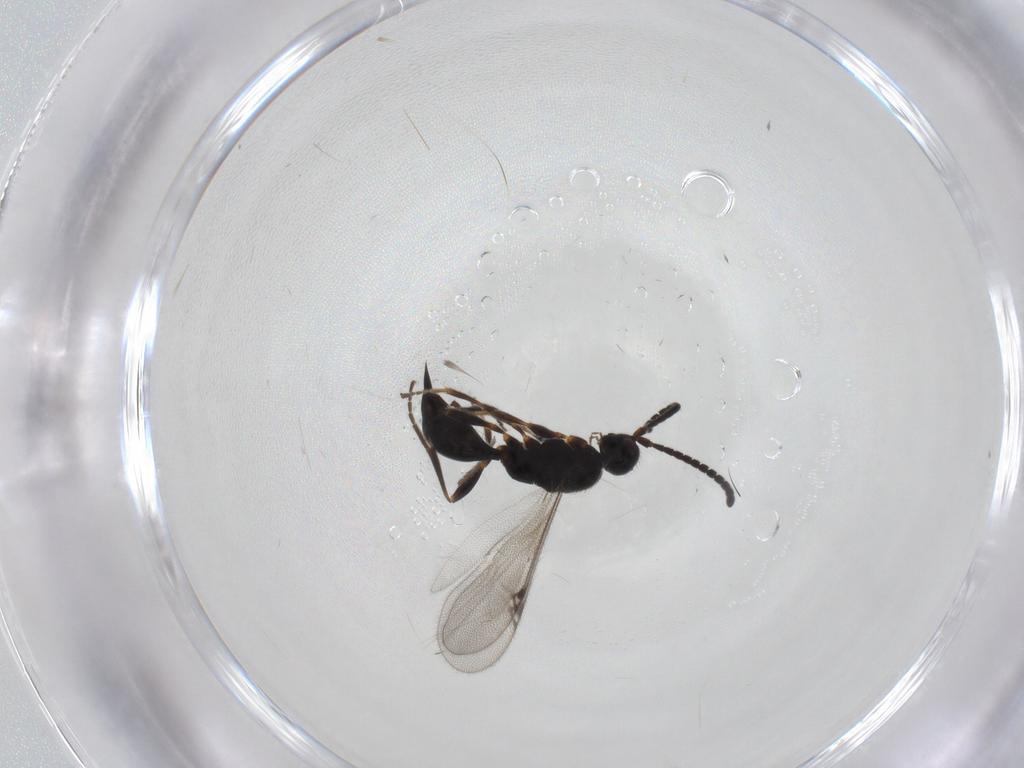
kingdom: Animalia
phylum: Arthropoda
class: Insecta
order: Hymenoptera
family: Proctotrupidae
